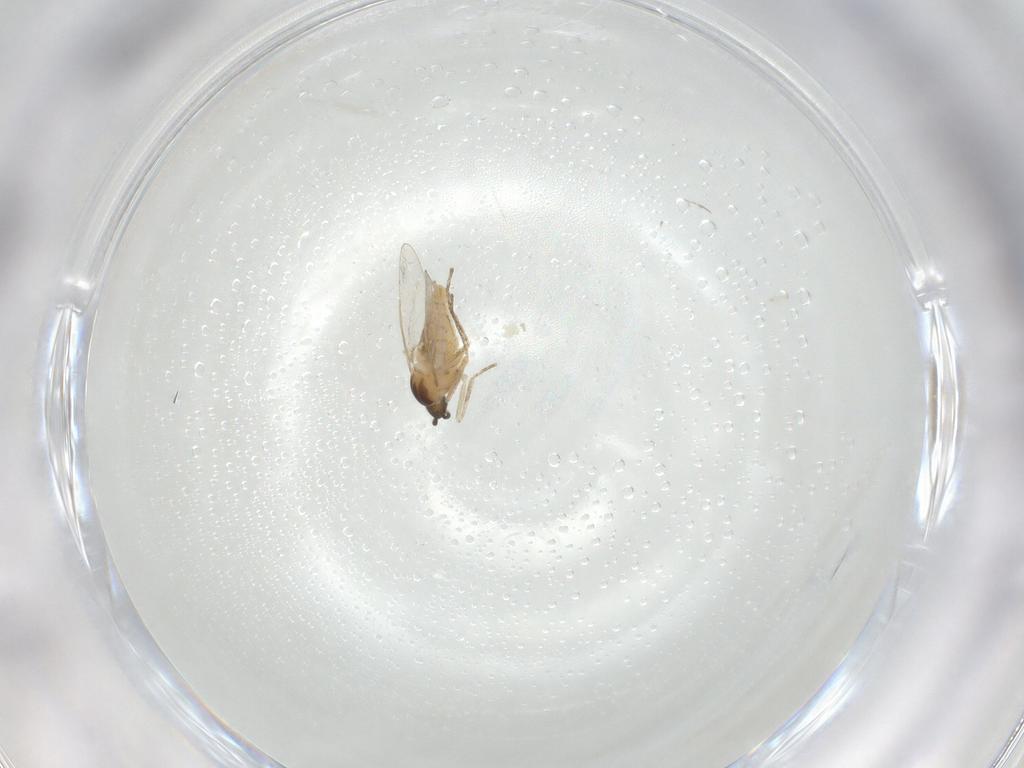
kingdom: Animalia
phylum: Arthropoda
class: Insecta
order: Diptera
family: Cecidomyiidae
